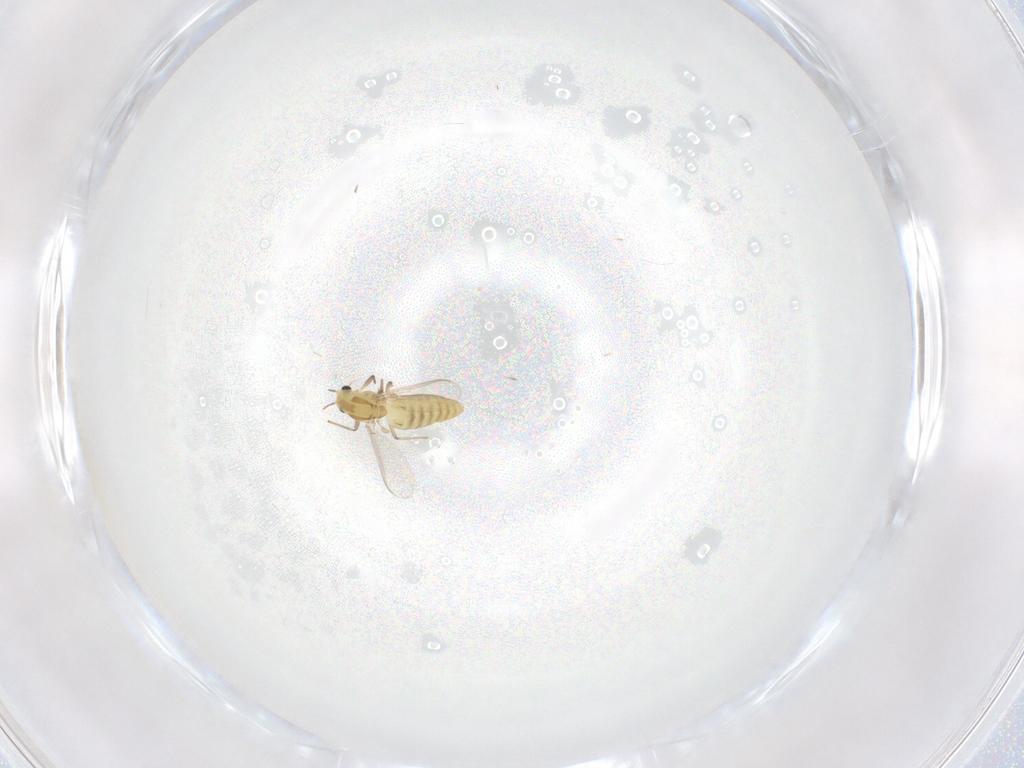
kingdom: Animalia
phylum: Arthropoda
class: Insecta
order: Diptera
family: Chironomidae
